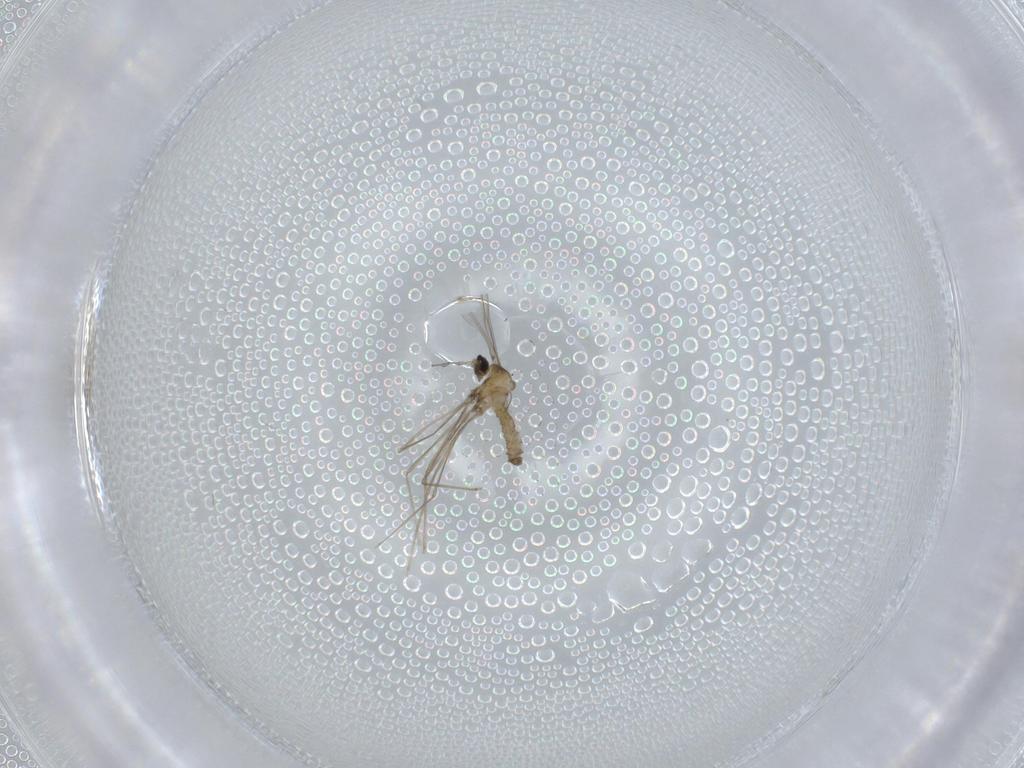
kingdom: Animalia
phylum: Arthropoda
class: Insecta
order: Diptera
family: Cecidomyiidae
